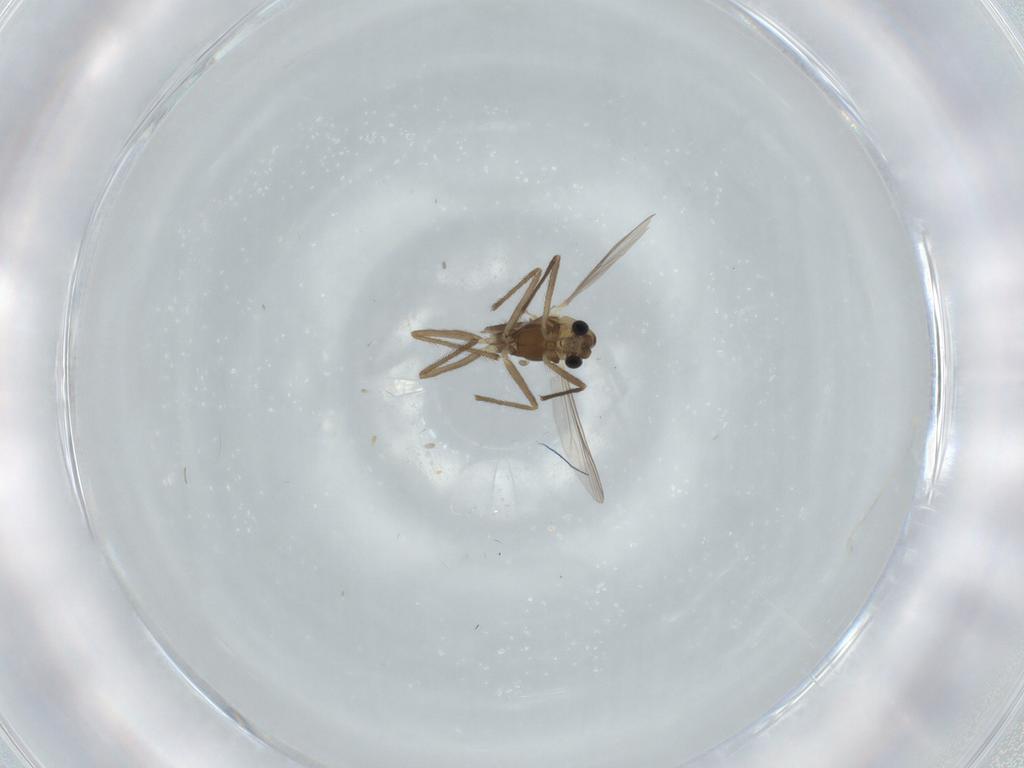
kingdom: Animalia
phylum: Arthropoda
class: Insecta
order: Diptera
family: Chironomidae
